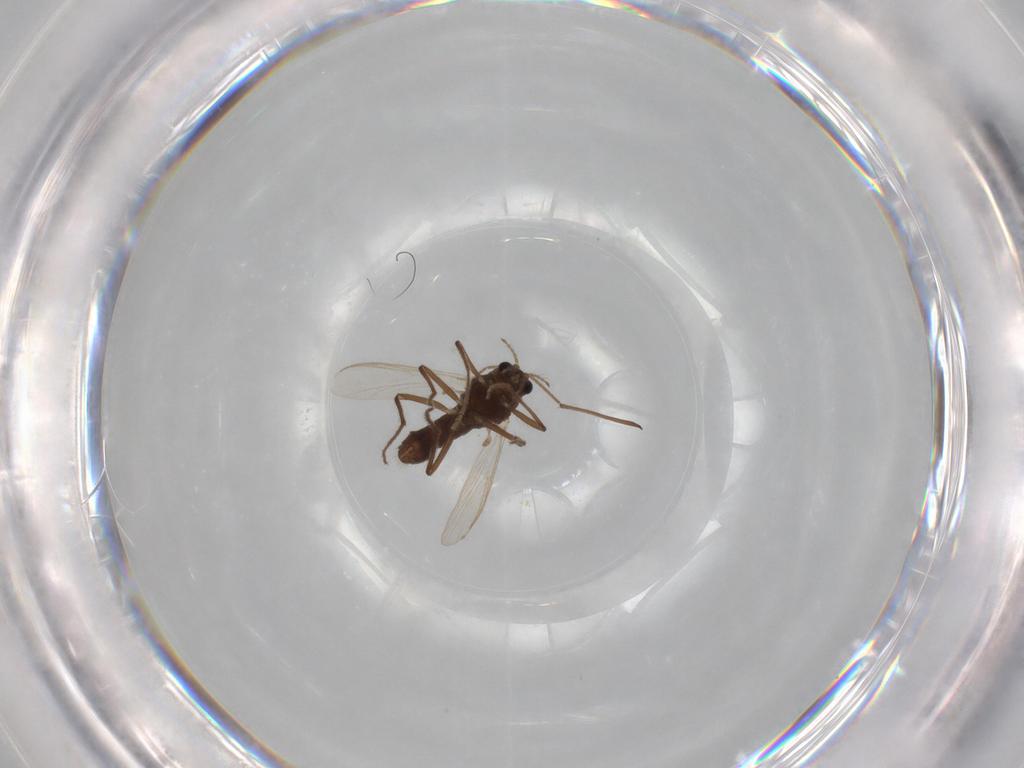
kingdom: Animalia
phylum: Arthropoda
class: Insecta
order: Diptera
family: Chironomidae
